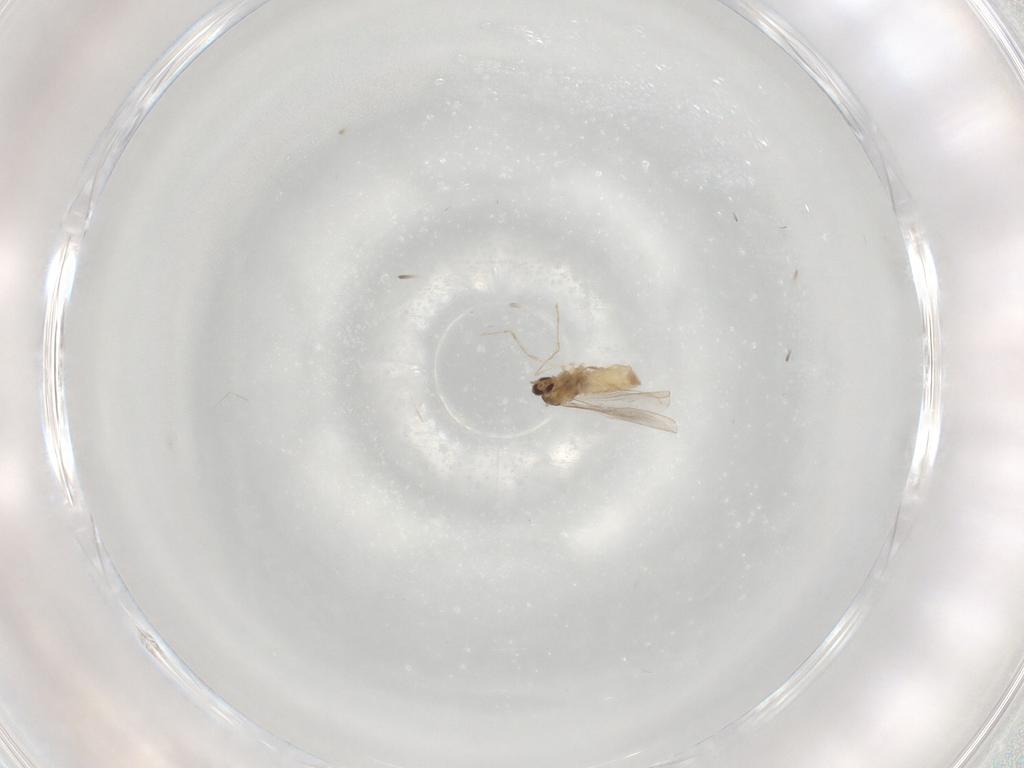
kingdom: Animalia
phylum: Arthropoda
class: Insecta
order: Diptera
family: Cecidomyiidae
